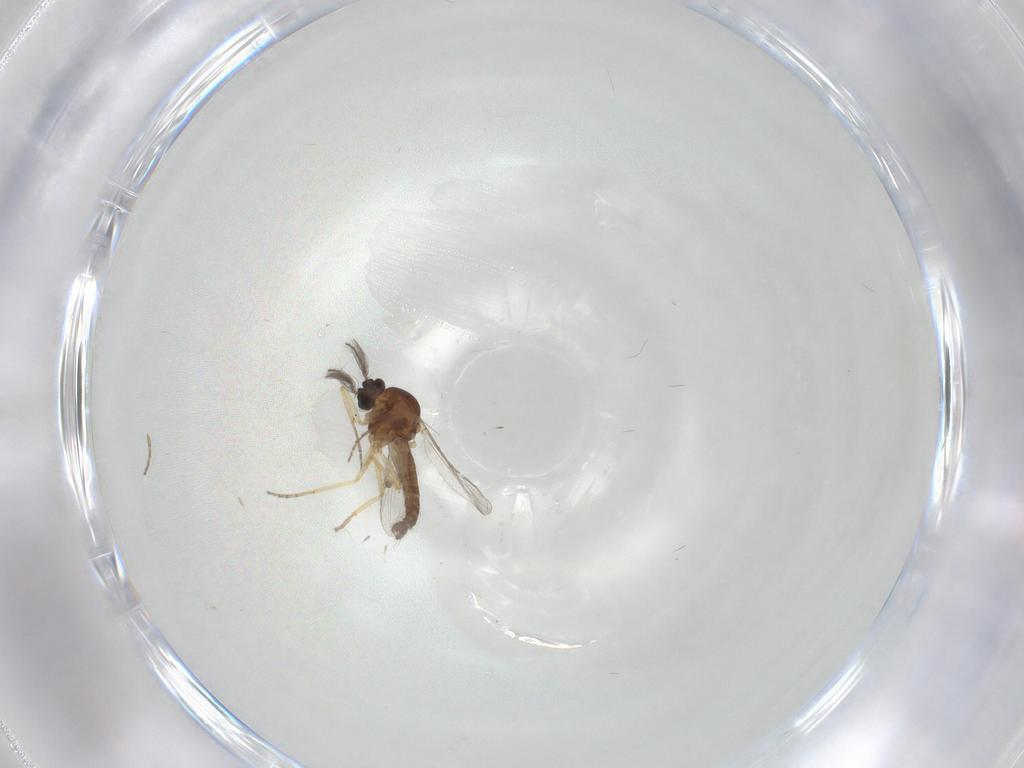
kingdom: Animalia
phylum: Arthropoda
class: Insecta
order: Diptera
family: Ceratopogonidae
